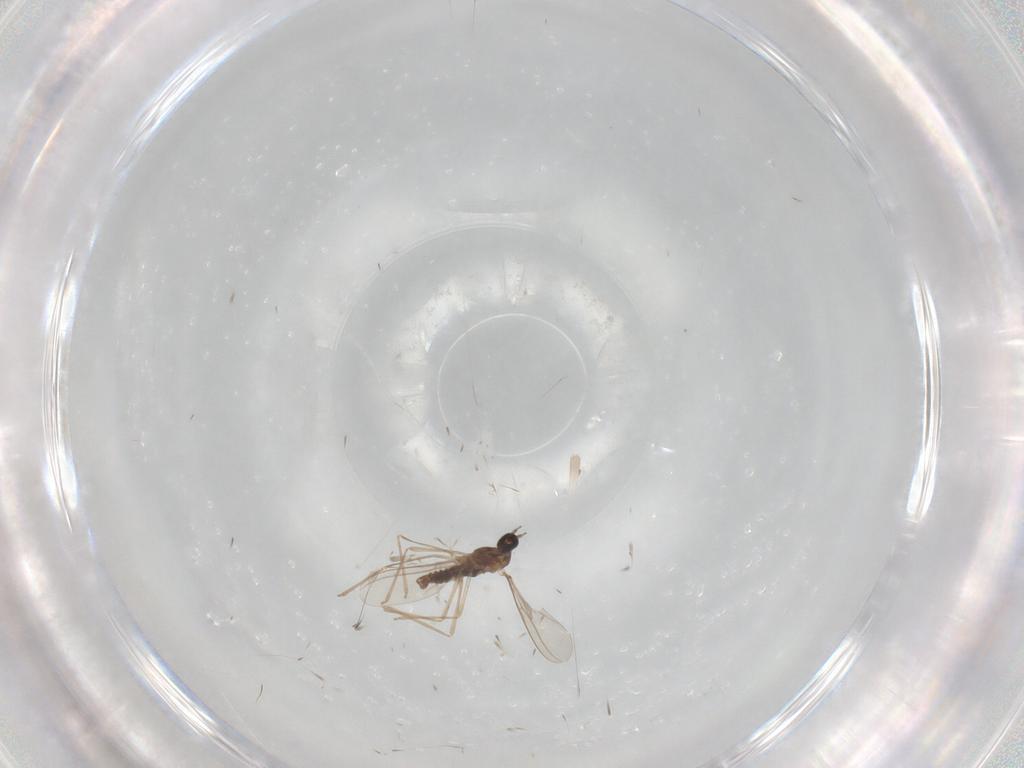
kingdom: Animalia
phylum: Arthropoda
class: Insecta
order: Diptera
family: Cecidomyiidae
